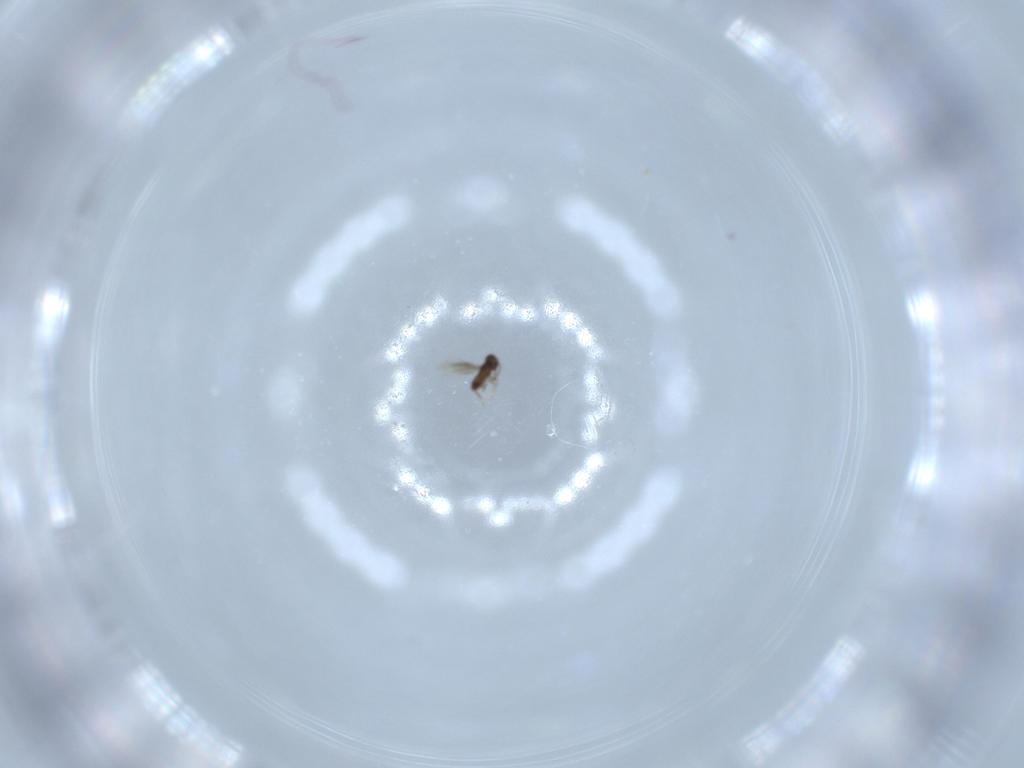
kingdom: Animalia
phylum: Arthropoda
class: Insecta
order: Hymenoptera
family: Signiphoridae
